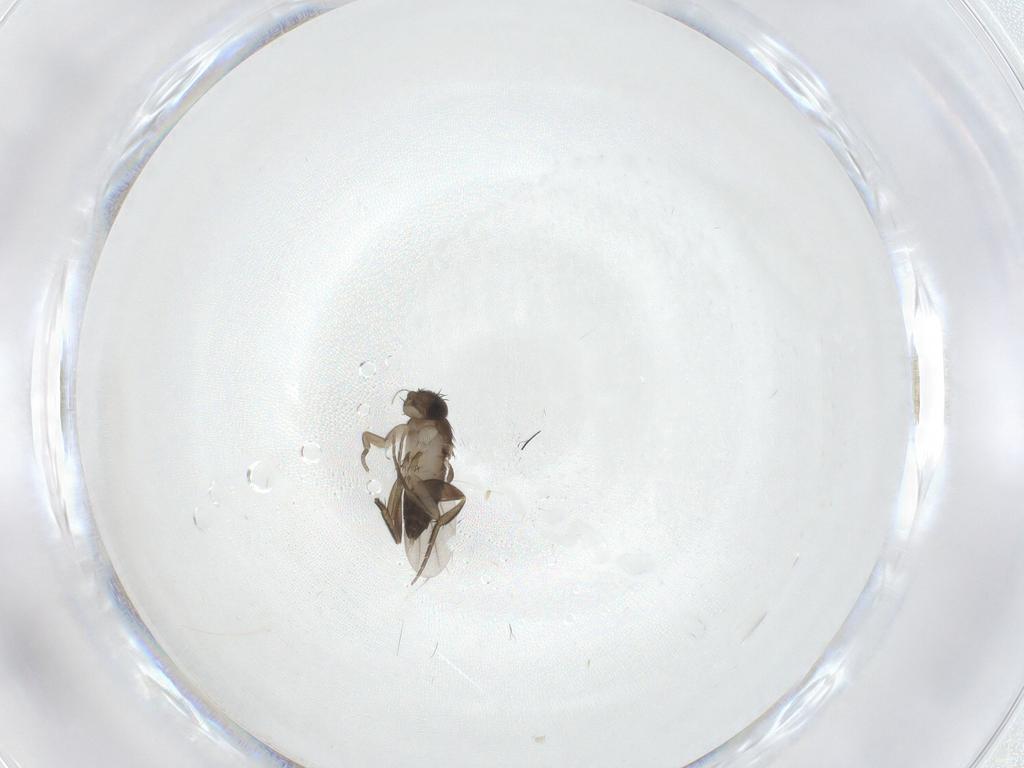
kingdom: Animalia
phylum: Arthropoda
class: Insecta
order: Diptera
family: Phoridae
